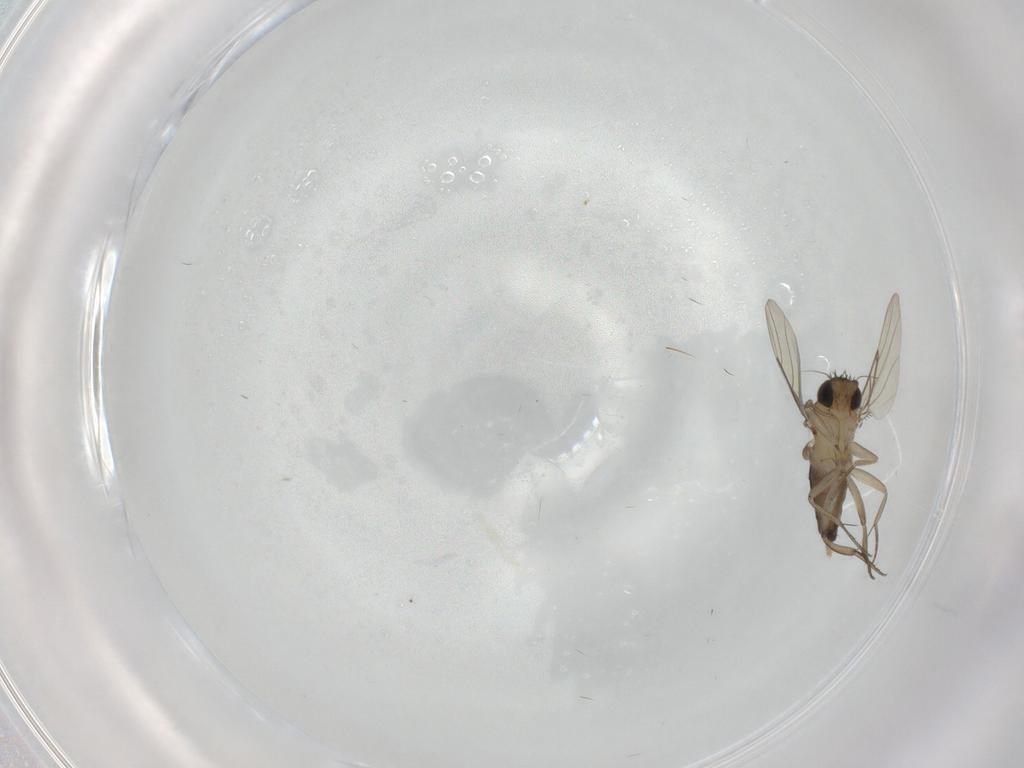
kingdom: Animalia
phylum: Arthropoda
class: Insecta
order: Diptera
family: Phoridae
